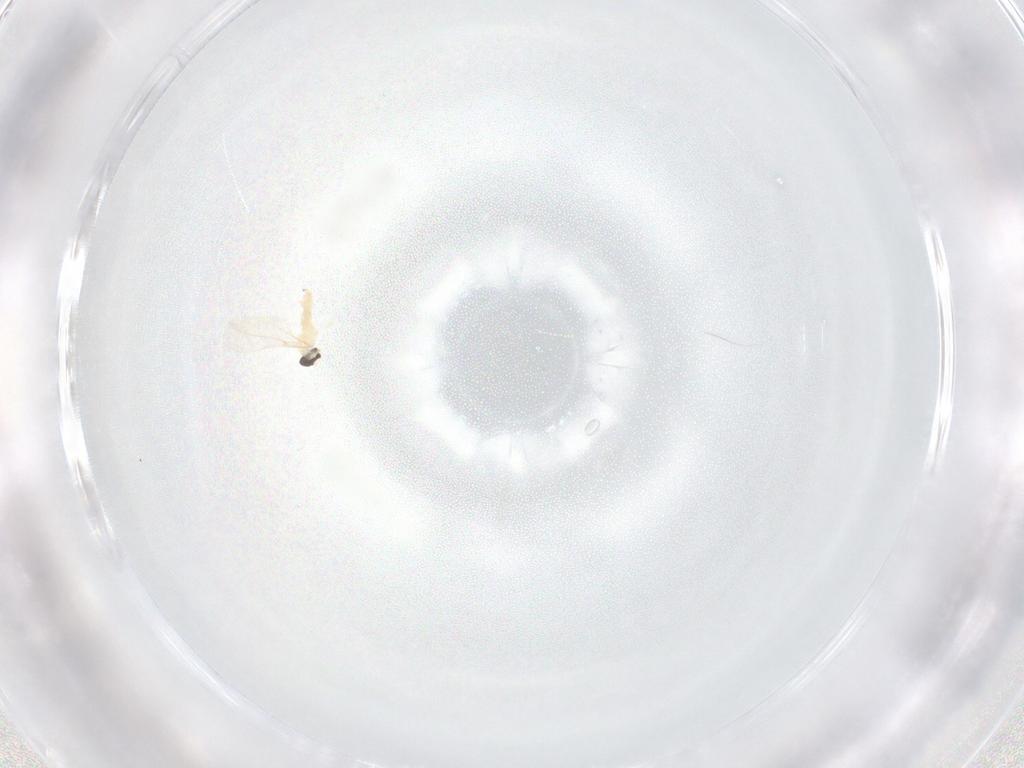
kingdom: Animalia
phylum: Arthropoda
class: Insecta
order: Diptera
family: Cecidomyiidae
